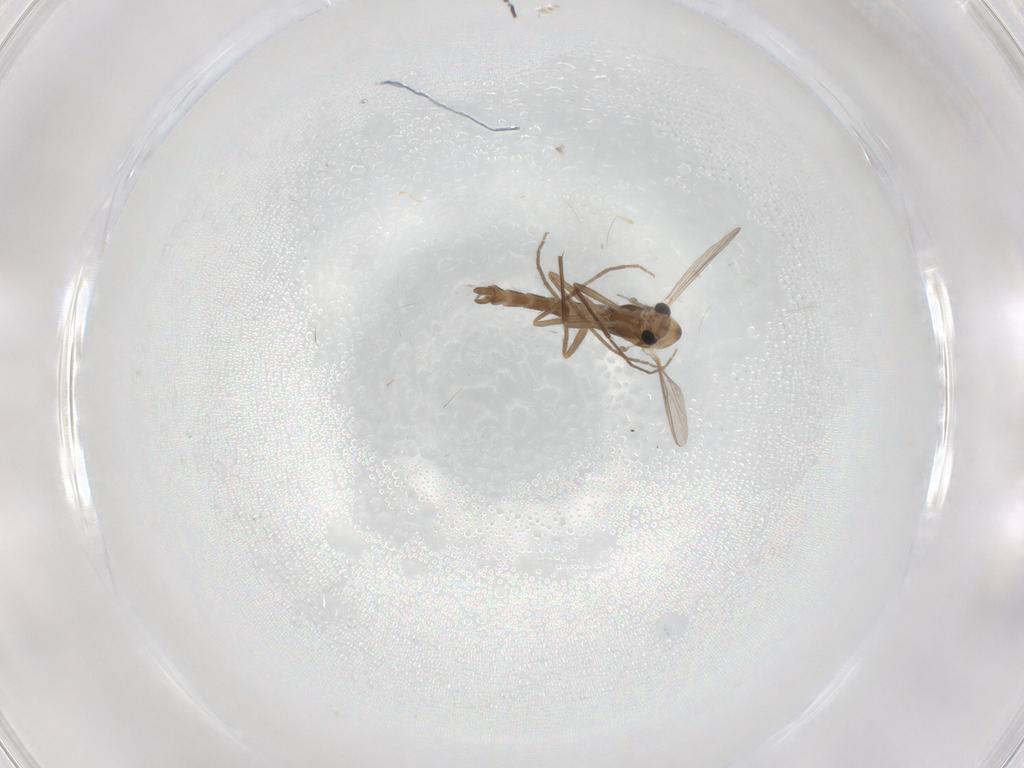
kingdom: Animalia
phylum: Arthropoda
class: Insecta
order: Diptera
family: Chironomidae
